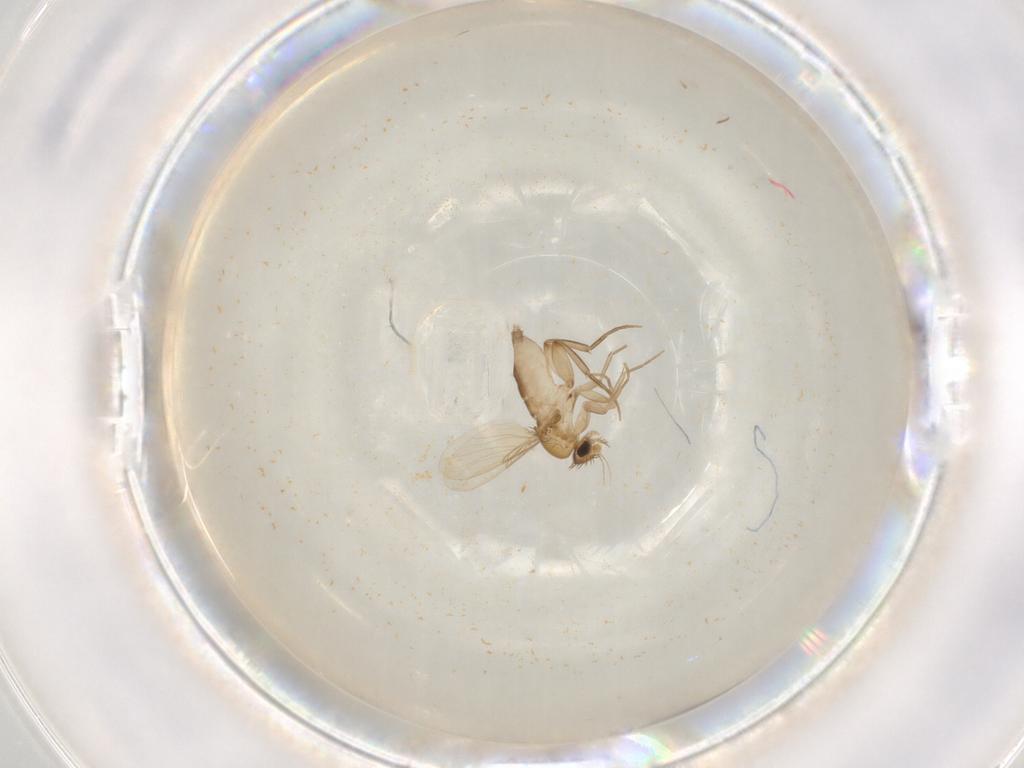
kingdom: Animalia
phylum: Arthropoda
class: Insecta
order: Diptera
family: Phoridae
